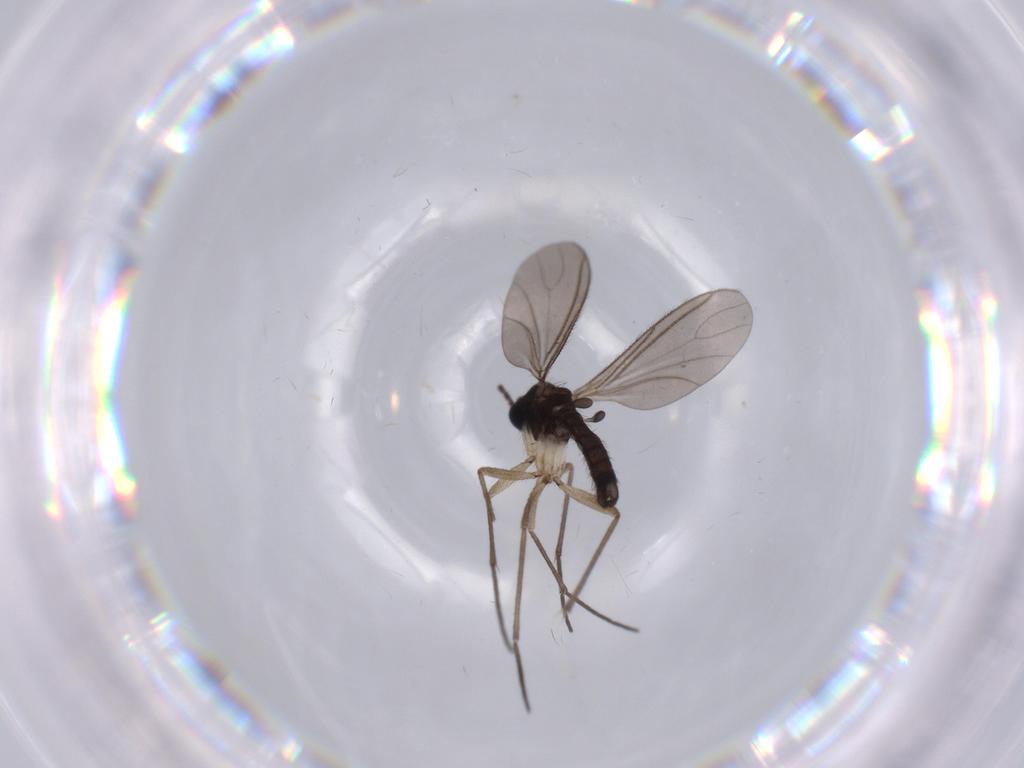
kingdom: Animalia
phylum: Arthropoda
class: Insecta
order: Diptera
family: Sciaridae
